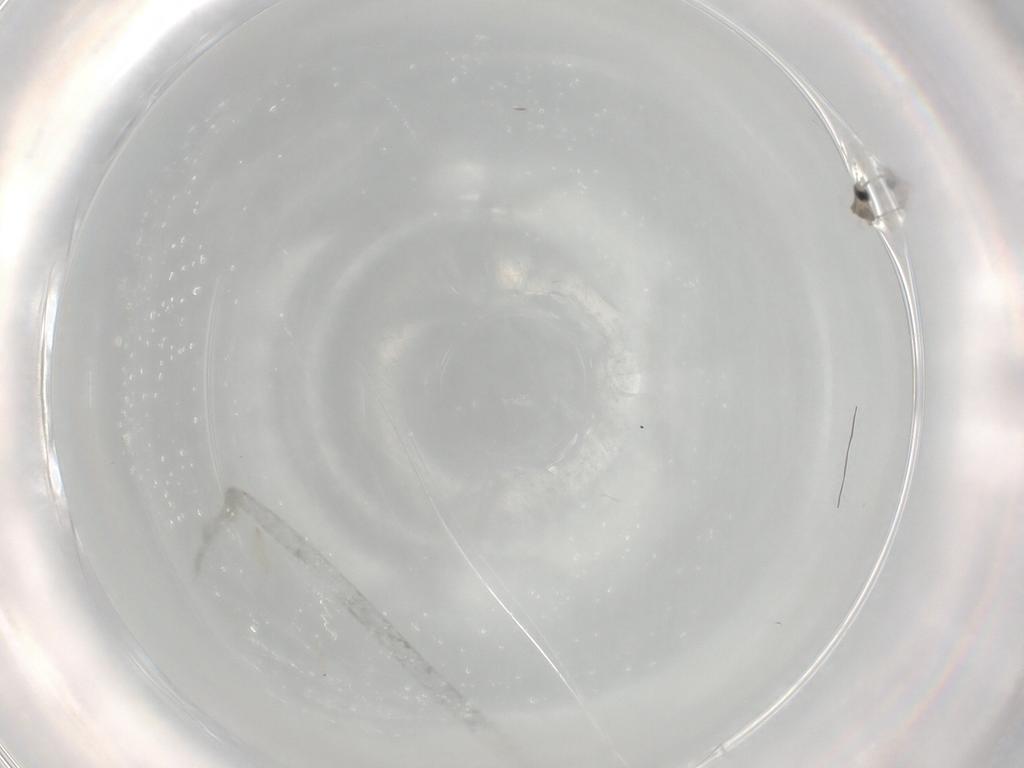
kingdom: Animalia
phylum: Arthropoda
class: Insecta
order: Diptera
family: Cecidomyiidae
